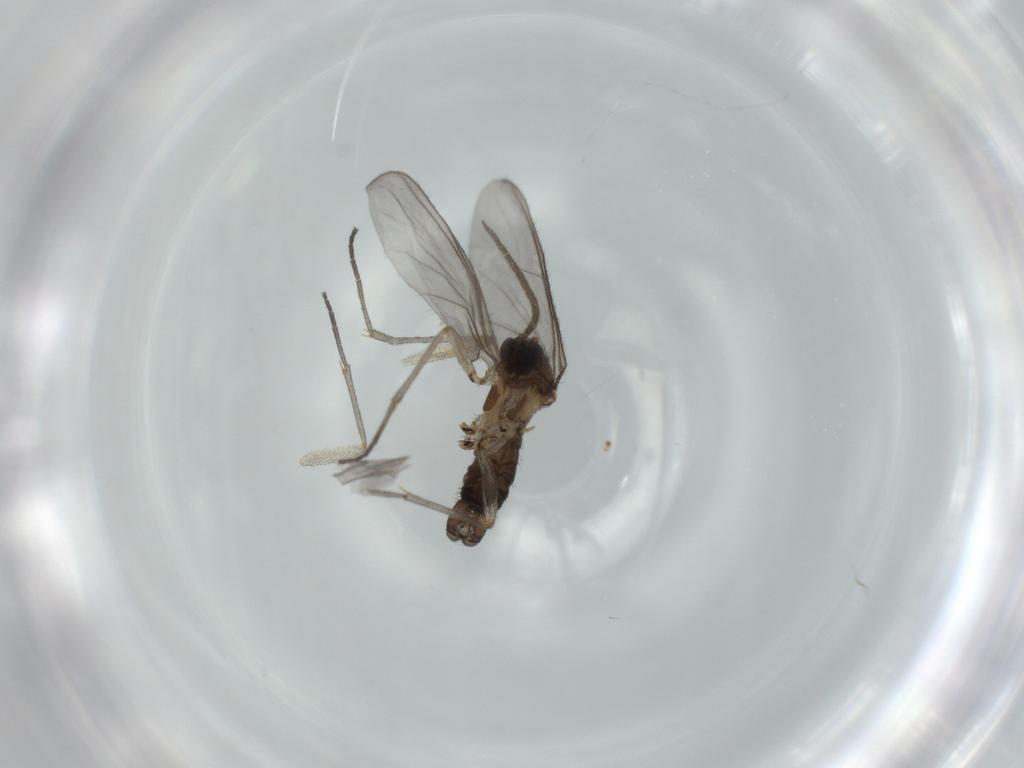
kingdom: Animalia
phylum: Arthropoda
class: Insecta
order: Diptera
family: Sciaridae
